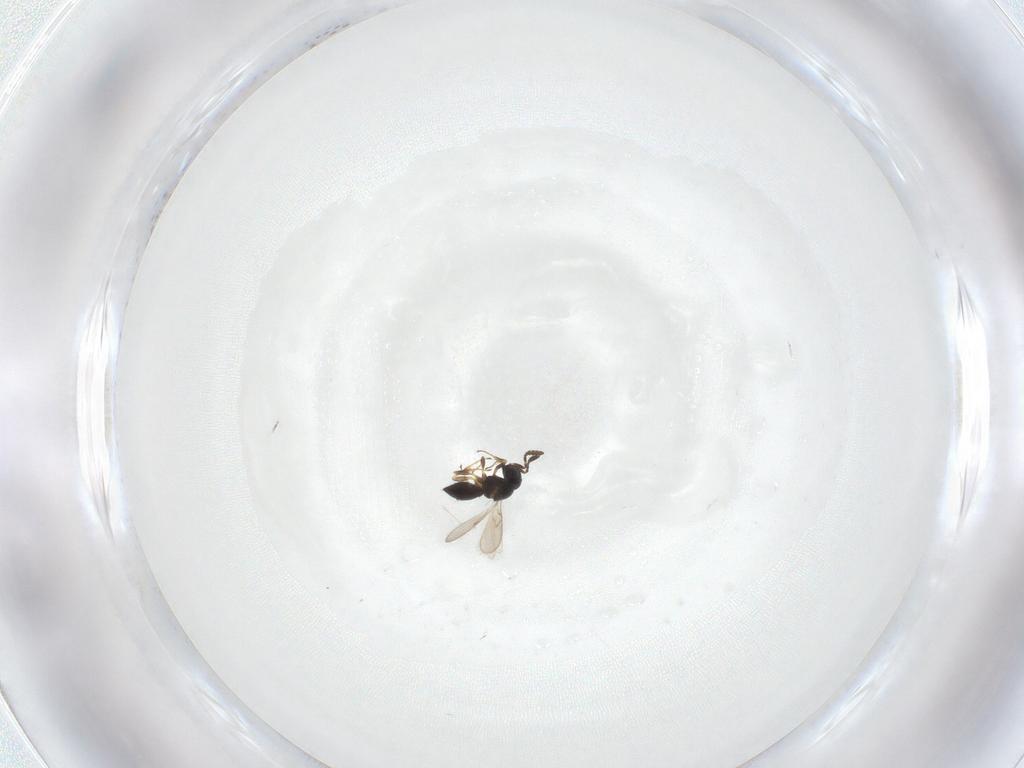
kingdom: Animalia
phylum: Arthropoda
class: Insecta
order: Hymenoptera
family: Scelionidae
